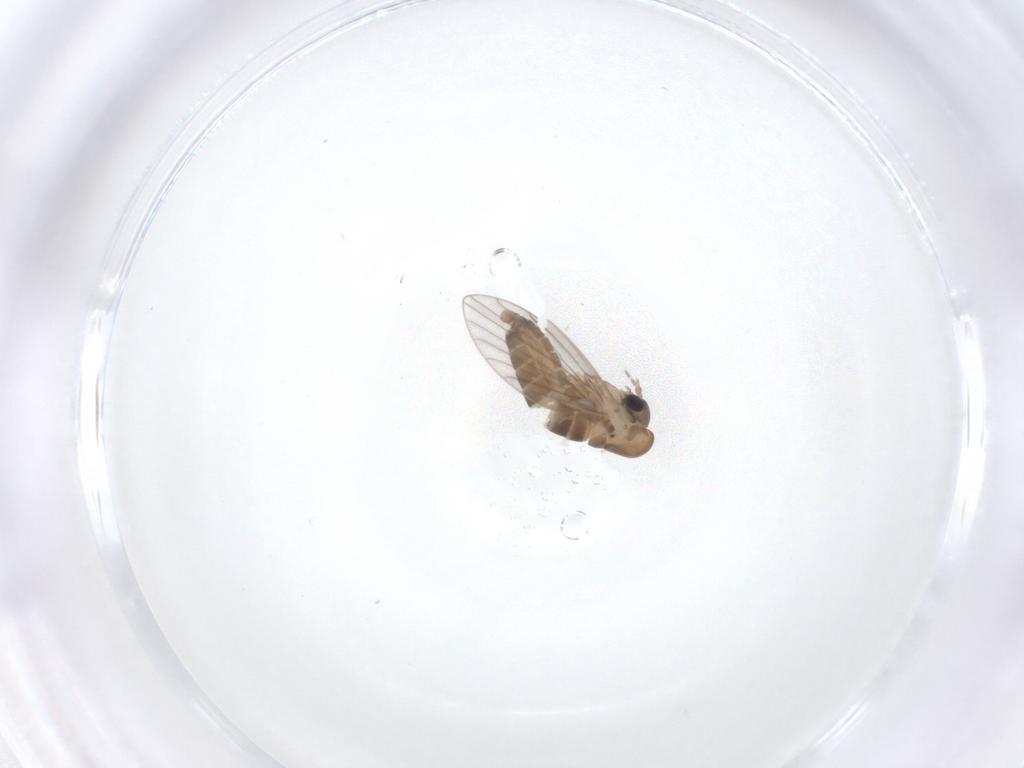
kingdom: Animalia
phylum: Arthropoda
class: Insecta
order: Diptera
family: Psychodidae
